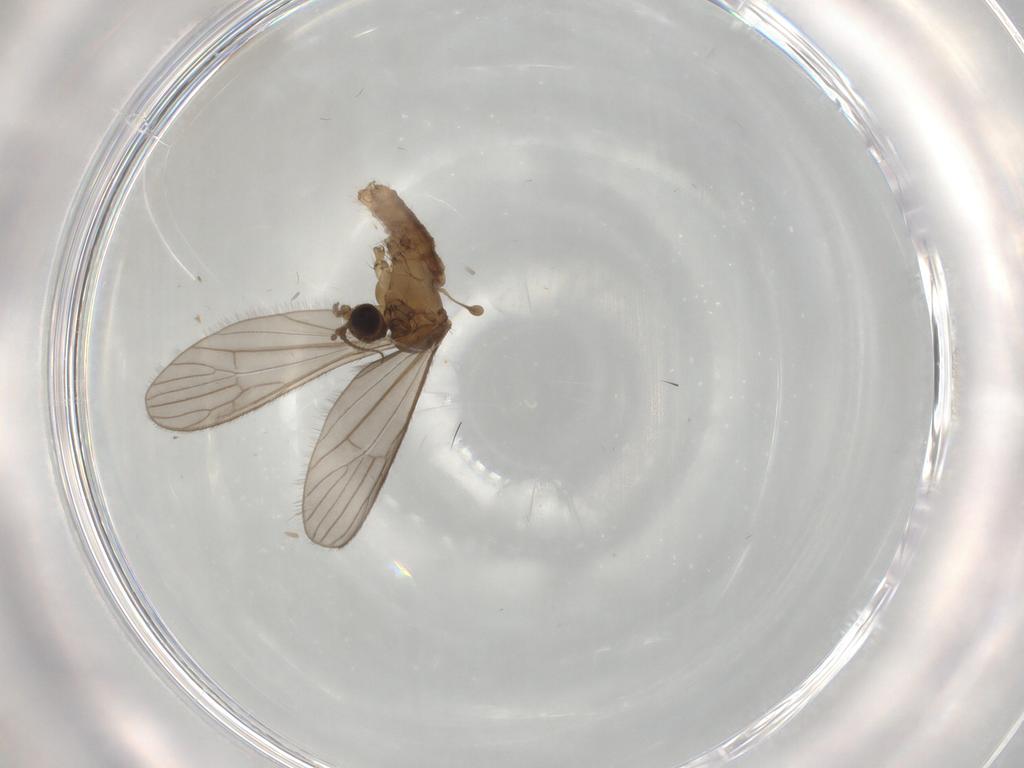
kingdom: Animalia
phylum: Arthropoda
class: Insecta
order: Diptera
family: Limoniidae
